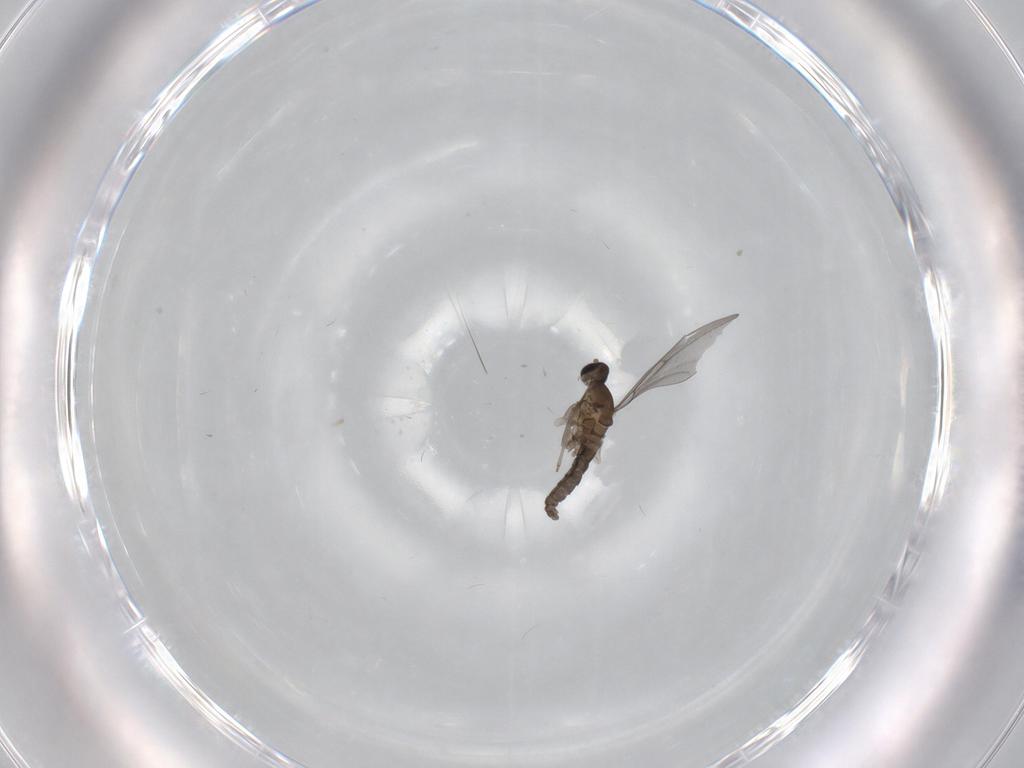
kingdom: Animalia
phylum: Arthropoda
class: Insecta
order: Diptera
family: Cecidomyiidae
